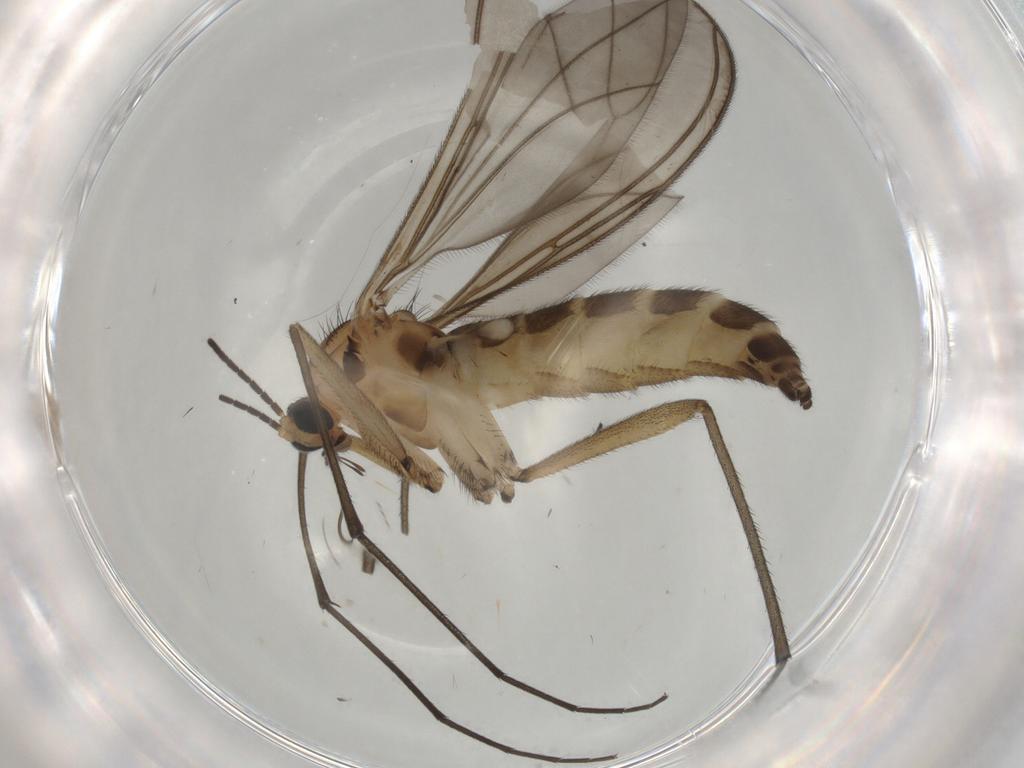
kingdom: Animalia
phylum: Arthropoda
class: Insecta
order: Diptera
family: Sciaridae
